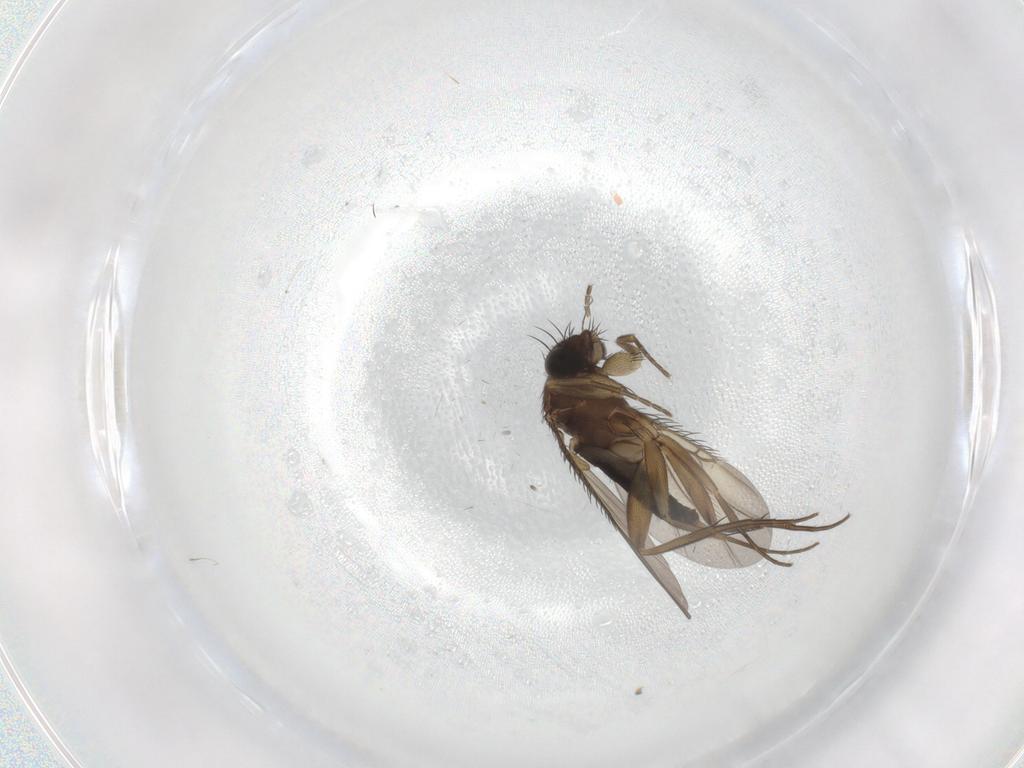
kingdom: Animalia
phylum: Arthropoda
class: Insecta
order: Diptera
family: Phoridae
